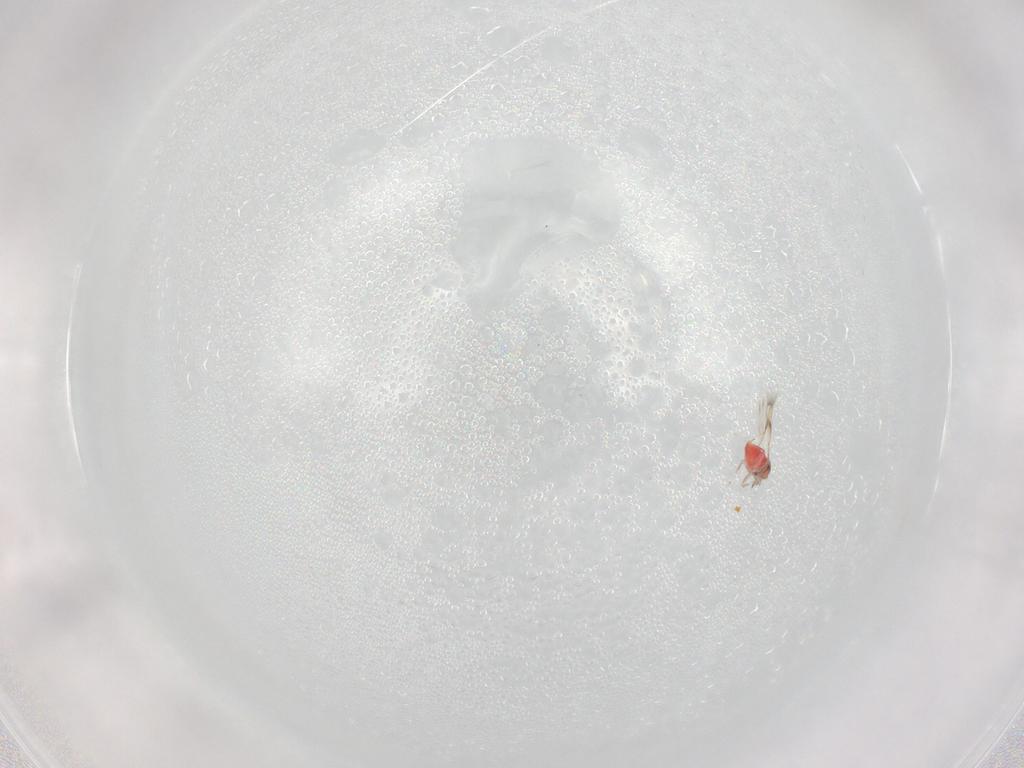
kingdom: Animalia
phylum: Arthropoda
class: Insecta
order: Hymenoptera
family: Trichogrammatidae
